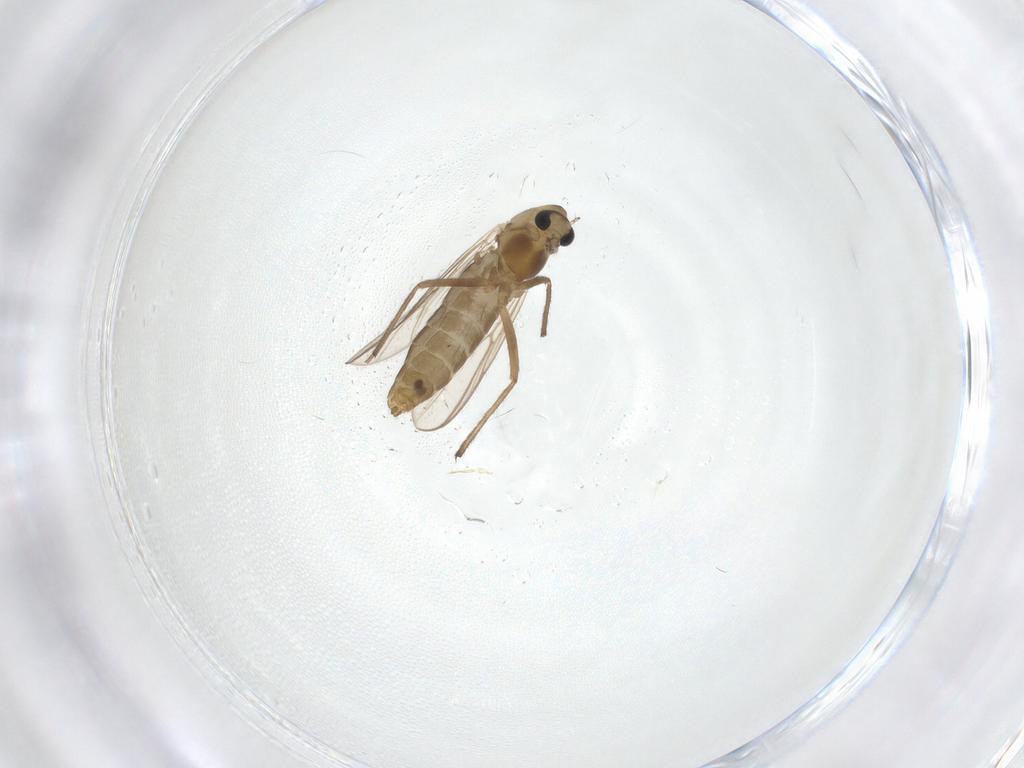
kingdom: Animalia
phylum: Arthropoda
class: Insecta
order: Diptera
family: Chironomidae
